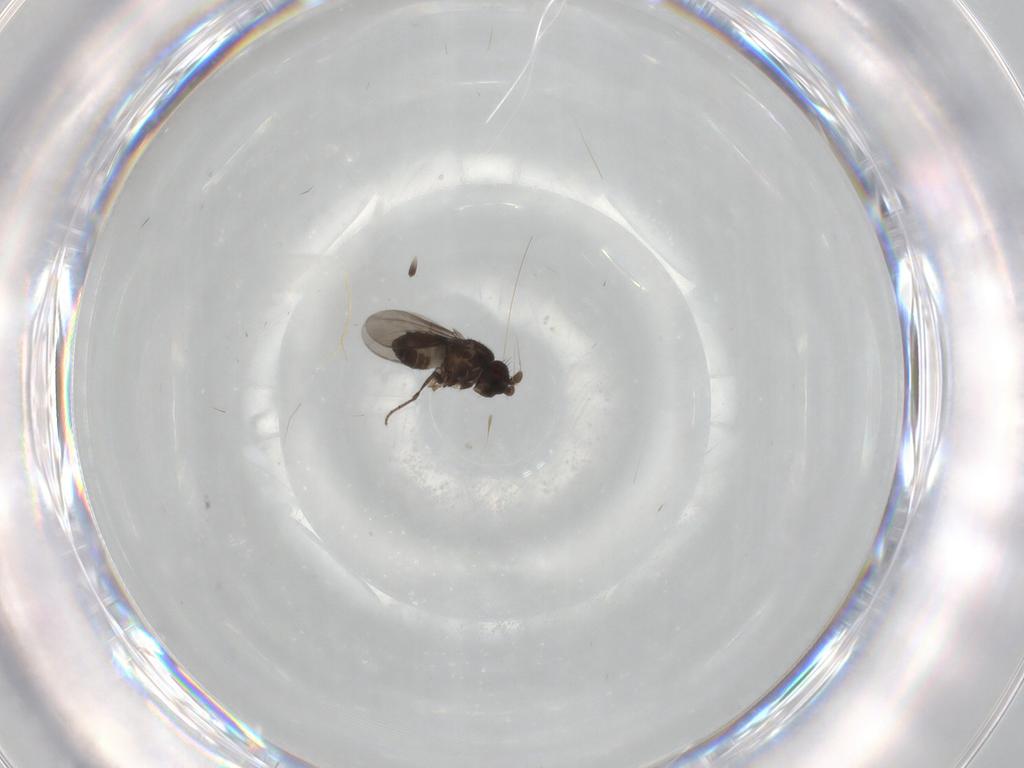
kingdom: Animalia
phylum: Arthropoda
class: Insecta
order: Diptera
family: Sphaeroceridae
